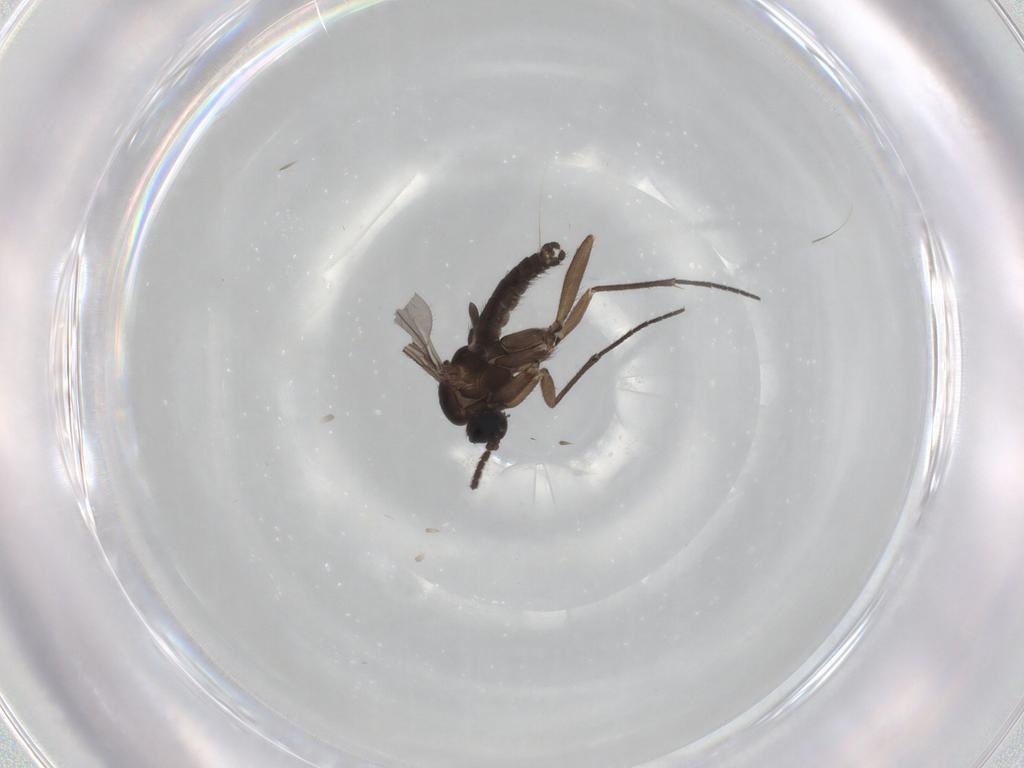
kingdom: Animalia
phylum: Arthropoda
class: Insecta
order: Diptera
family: Sciaridae
